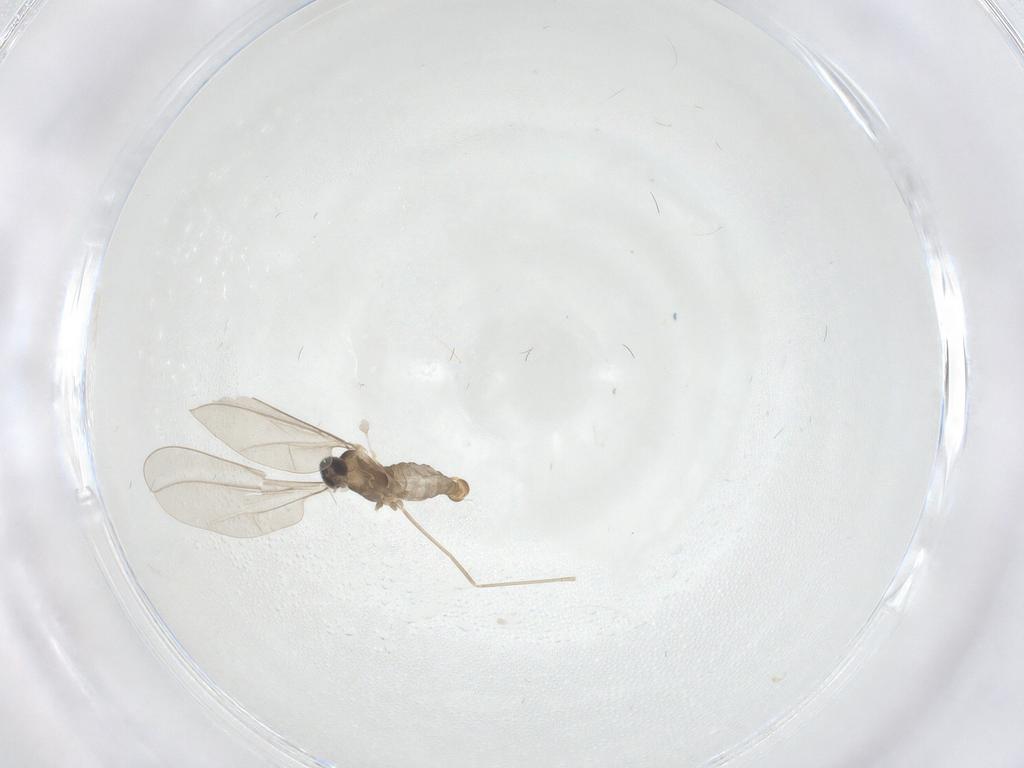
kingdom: Animalia
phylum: Arthropoda
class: Insecta
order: Diptera
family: Cecidomyiidae
